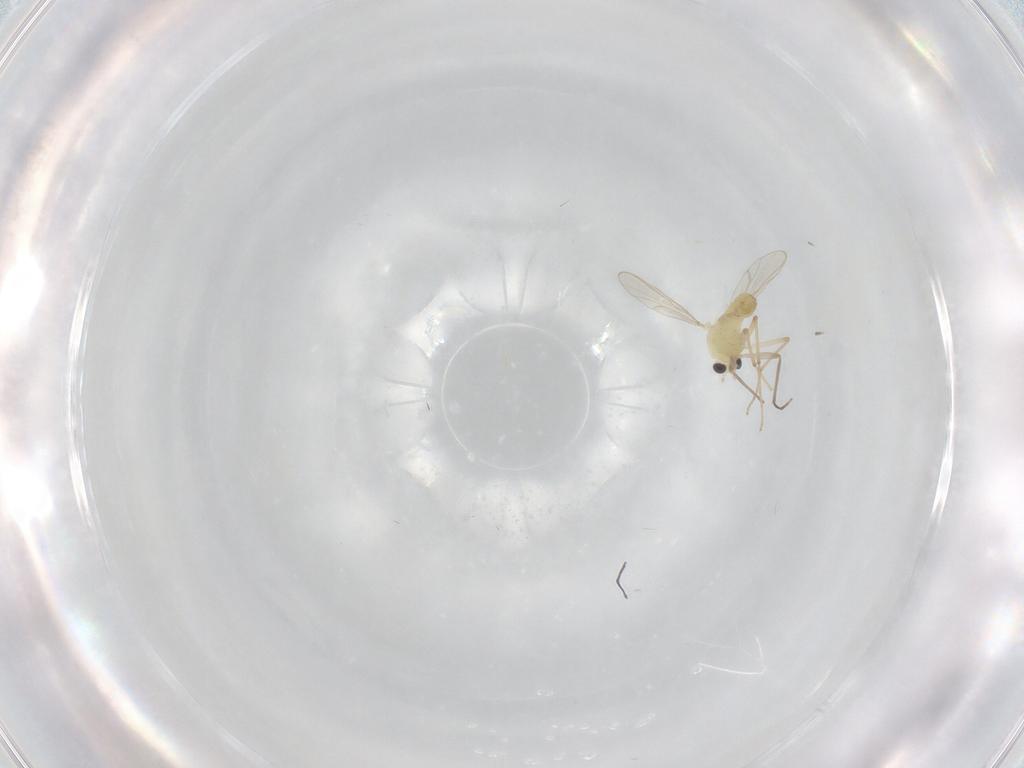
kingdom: Animalia
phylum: Arthropoda
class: Insecta
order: Diptera
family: Chironomidae
